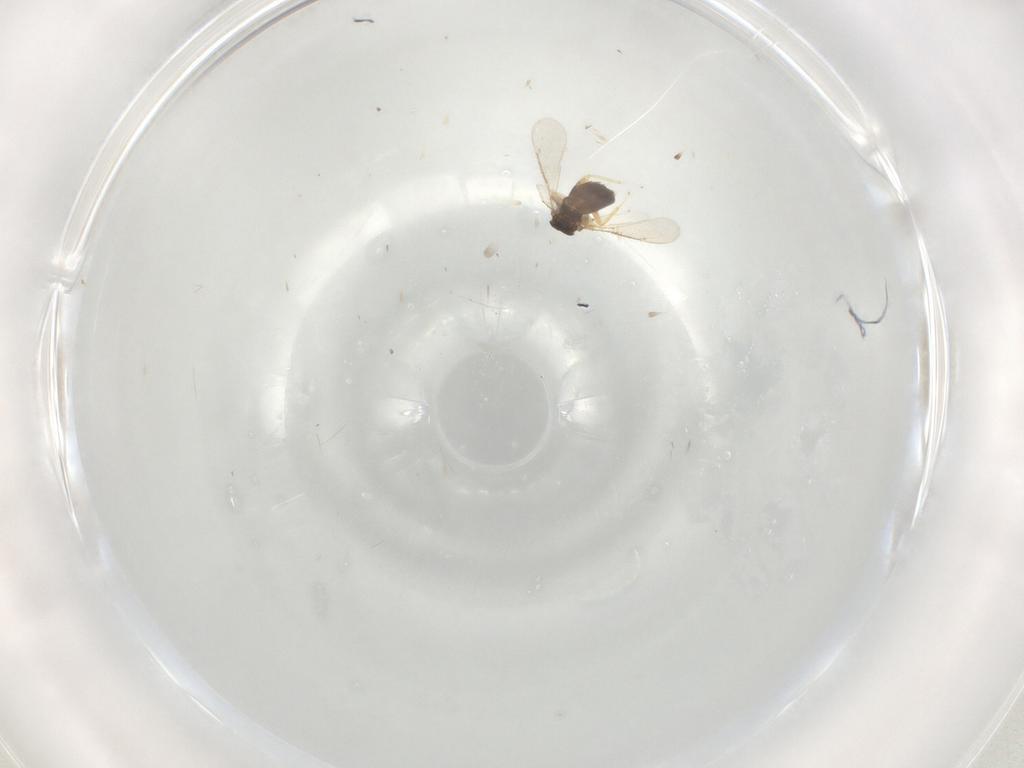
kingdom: Animalia
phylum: Arthropoda
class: Insecta
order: Hymenoptera
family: Eulophidae
